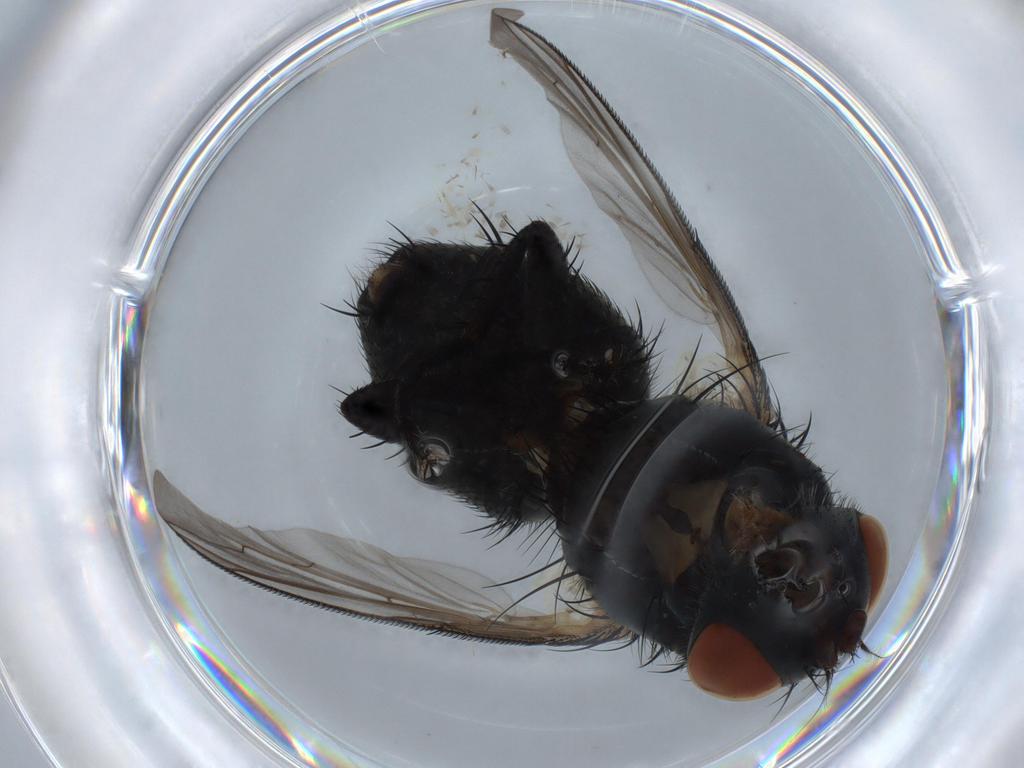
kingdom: Animalia
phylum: Arthropoda
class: Insecta
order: Diptera
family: Sarcophagidae
